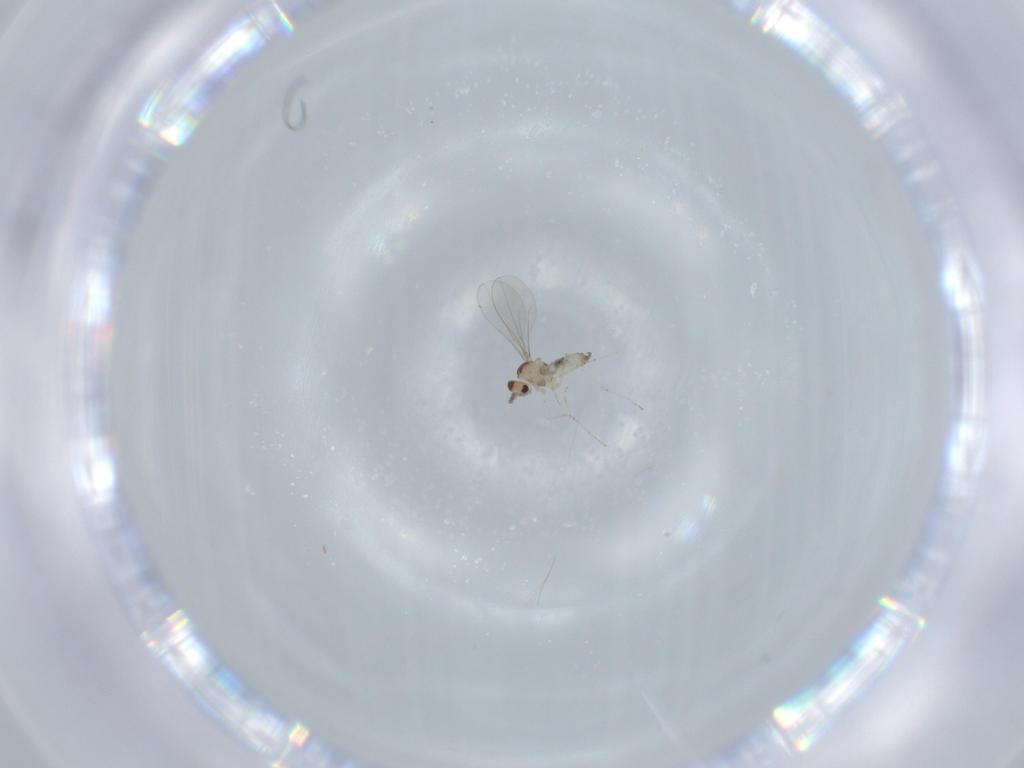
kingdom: Animalia
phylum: Arthropoda
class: Insecta
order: Diptera
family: Cecidomyiidae
